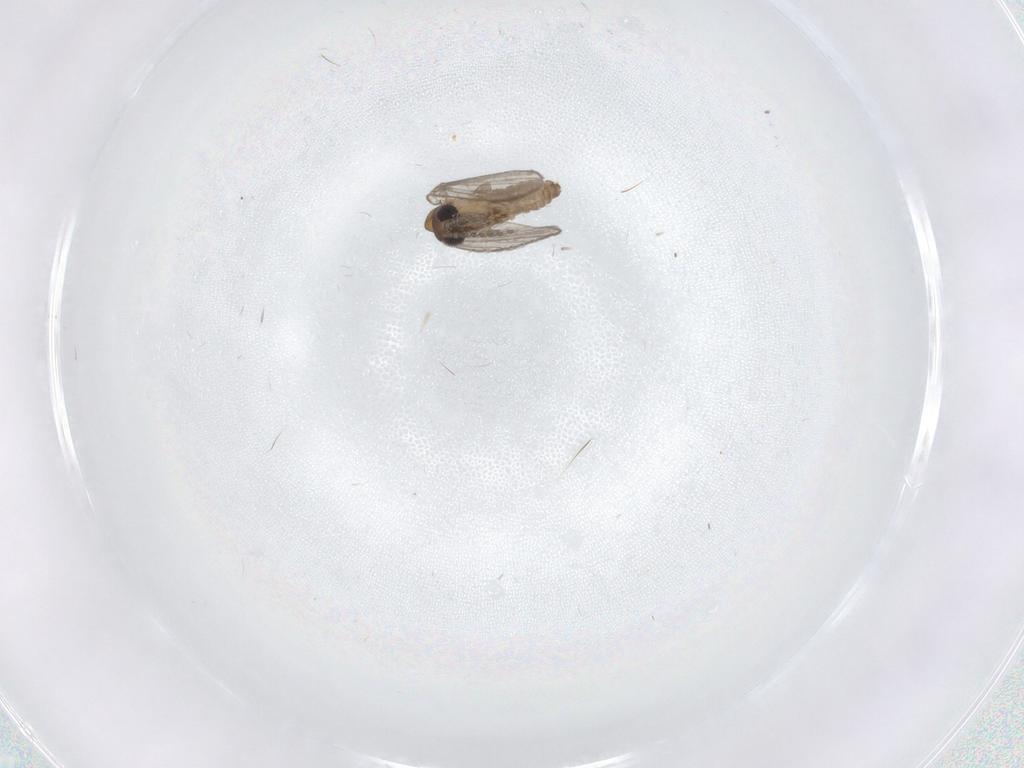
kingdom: Animalia
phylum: Arthropoda
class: Insecta
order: Diptera
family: Psychodidae
